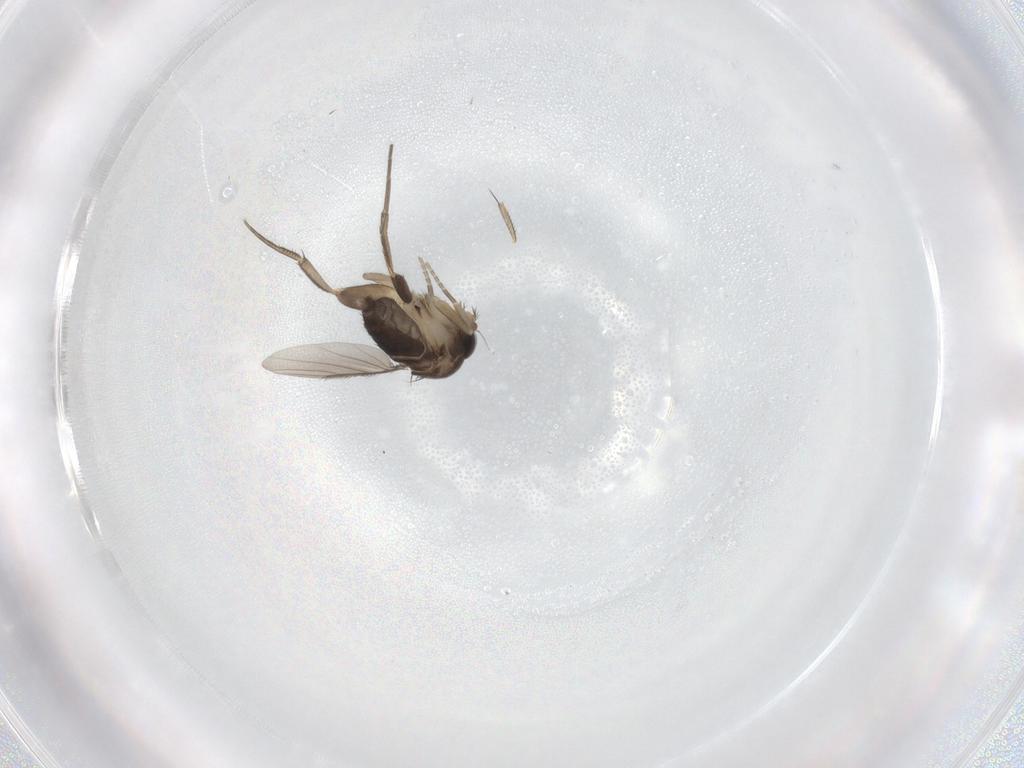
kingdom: Animalia
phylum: Arthropoda
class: Insecta
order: Diptera
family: Phoridae
